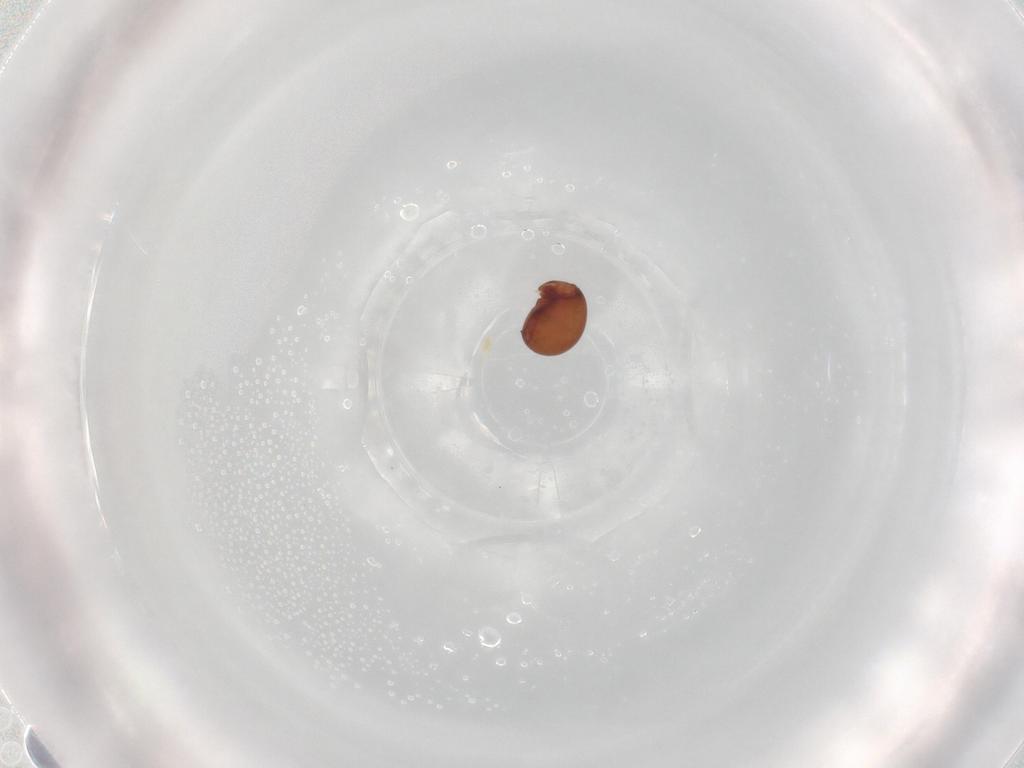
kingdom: Animalia
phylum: Arthropoda
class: Arachnida
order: Sarcoptiformes
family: Phthiracaridae
